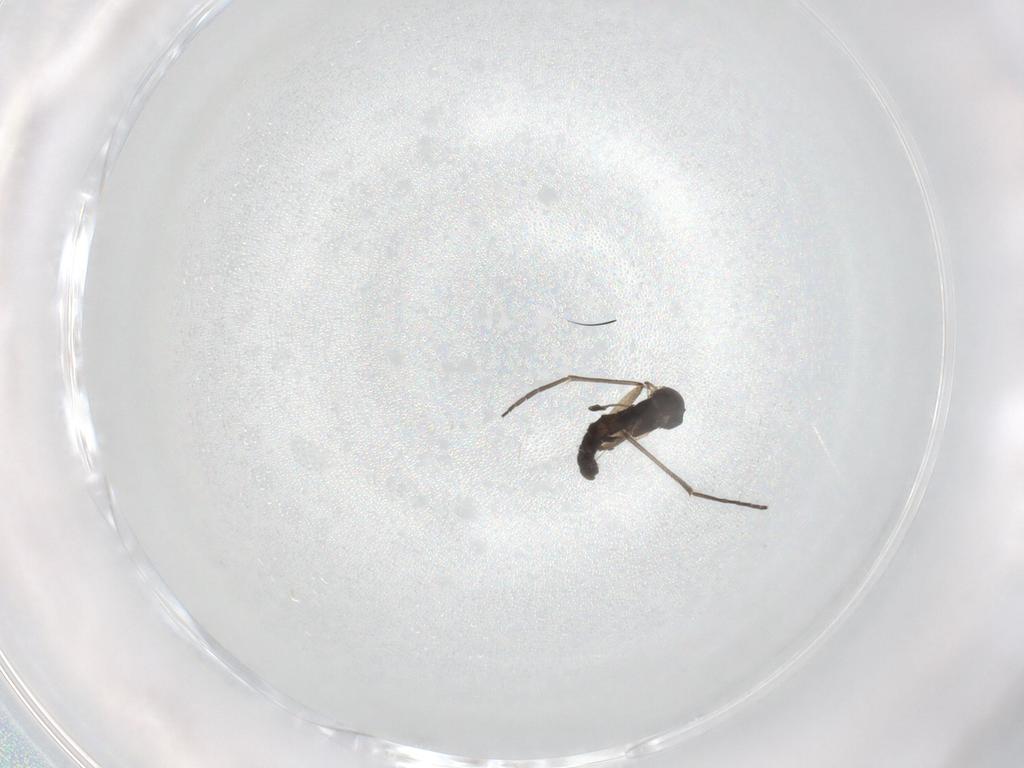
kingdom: Animalia
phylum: Arthropoda
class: Insecta
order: Diptera
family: Sciaridae
